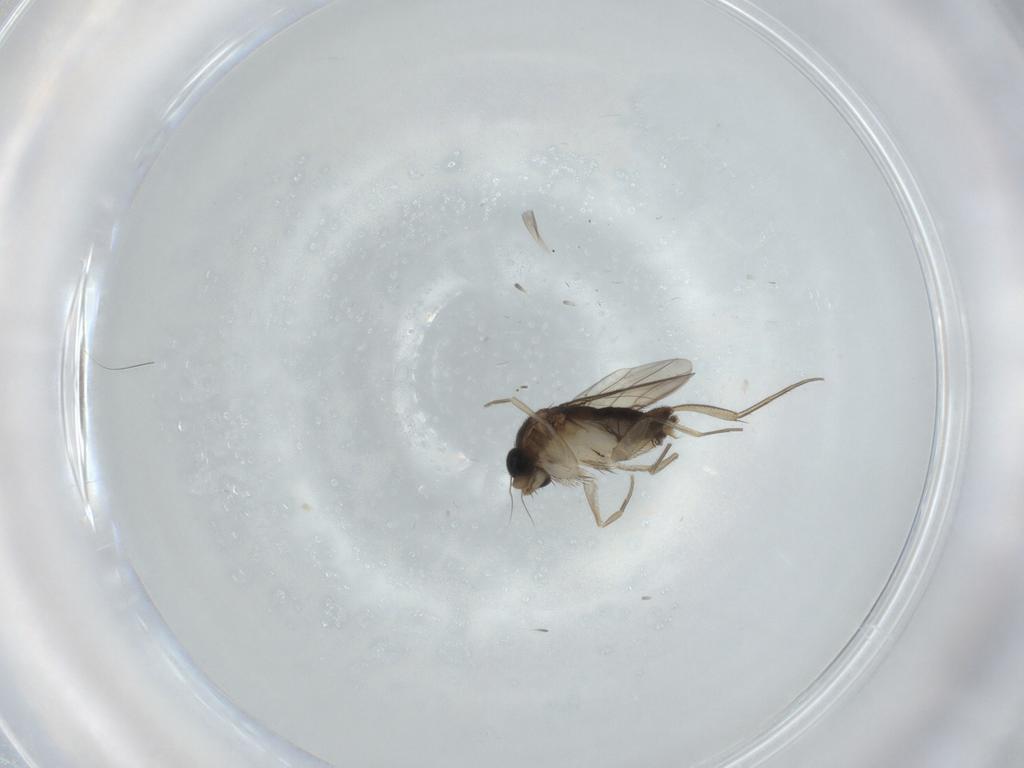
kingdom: Animalia
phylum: Arthropoda
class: Insecta
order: Diptera
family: Phoridae
